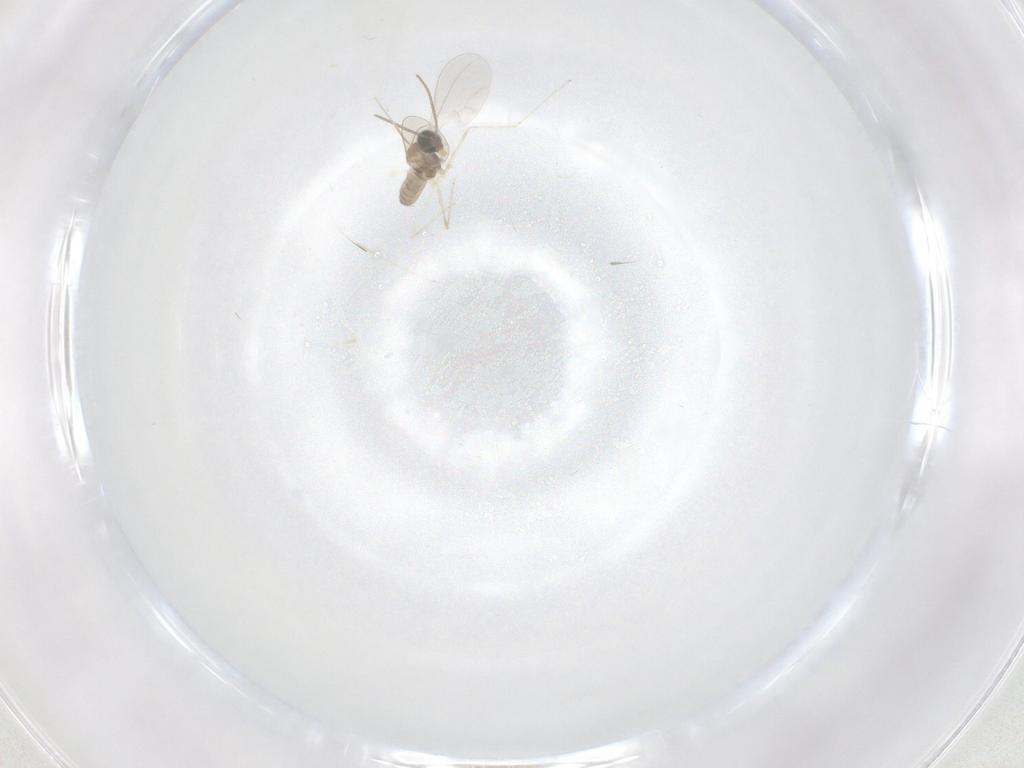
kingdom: Animalia
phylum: Arthropoda
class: Insecta
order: Diptera
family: Cecidomyiidae
